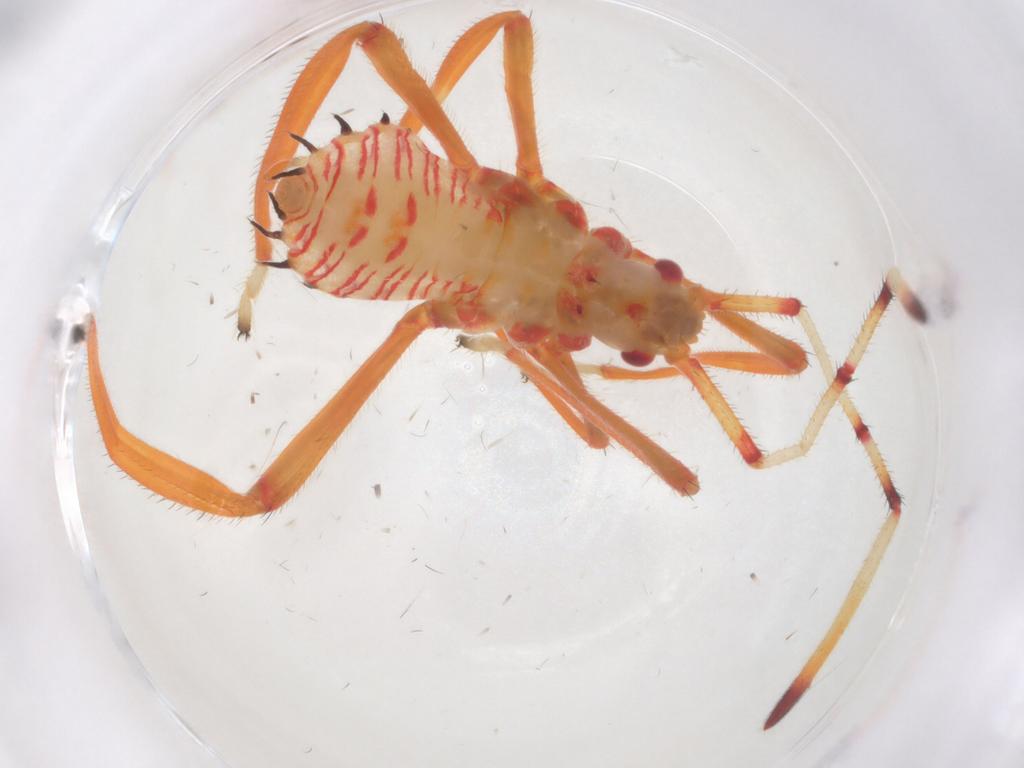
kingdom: Animalia
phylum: Arthropoda
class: Insecta
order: Hemiptera
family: Coreidae
